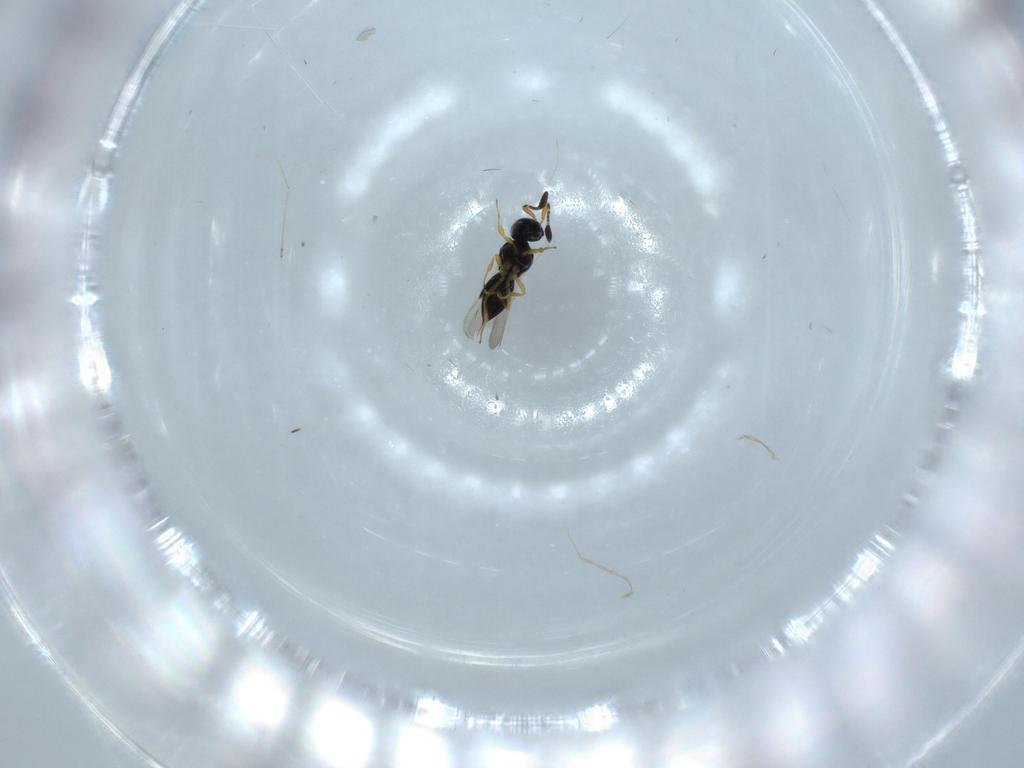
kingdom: Animalia
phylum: Arthropoda
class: Insecta
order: Hymenoptera
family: Scelionidae
